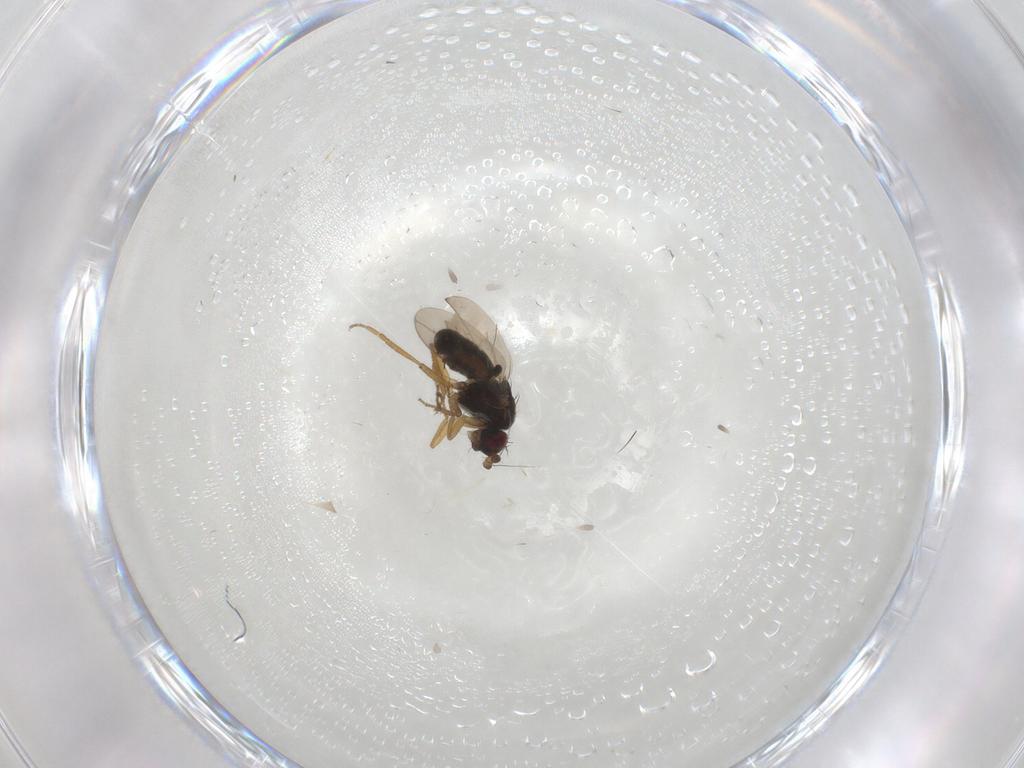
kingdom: Animalia
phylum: Arthropoda
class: Insecta
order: Diptera
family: Sphaeroceridae
